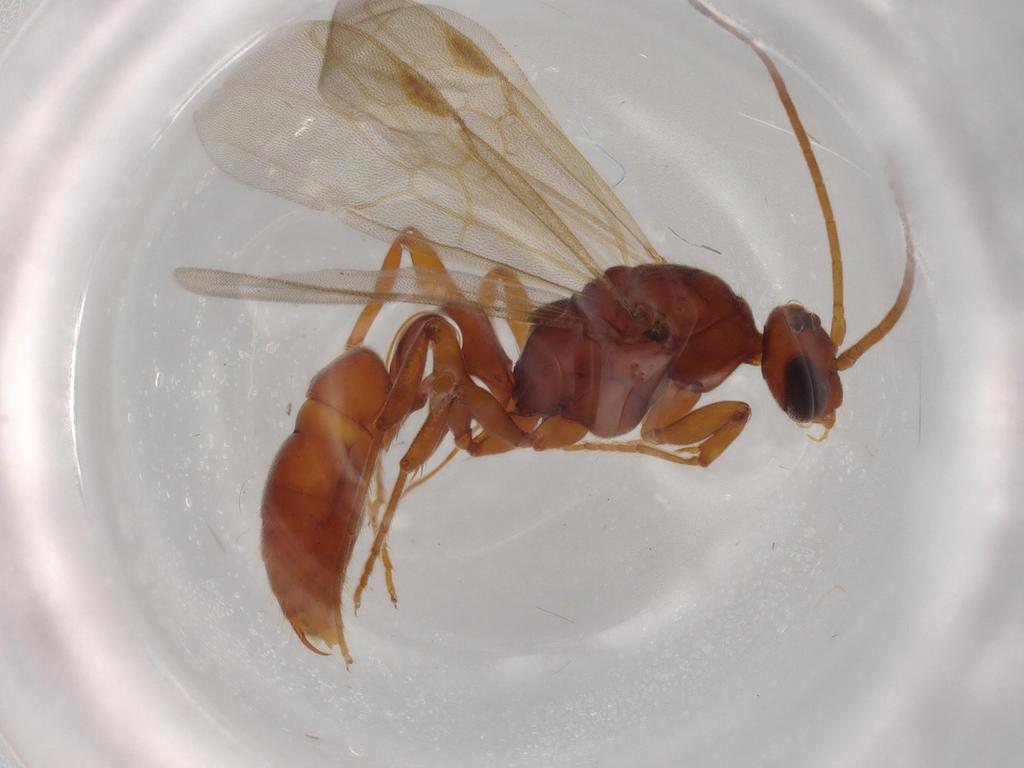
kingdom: Animalia
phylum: Arthropoda
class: Insecta
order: Hymenoptera
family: Formicidae
